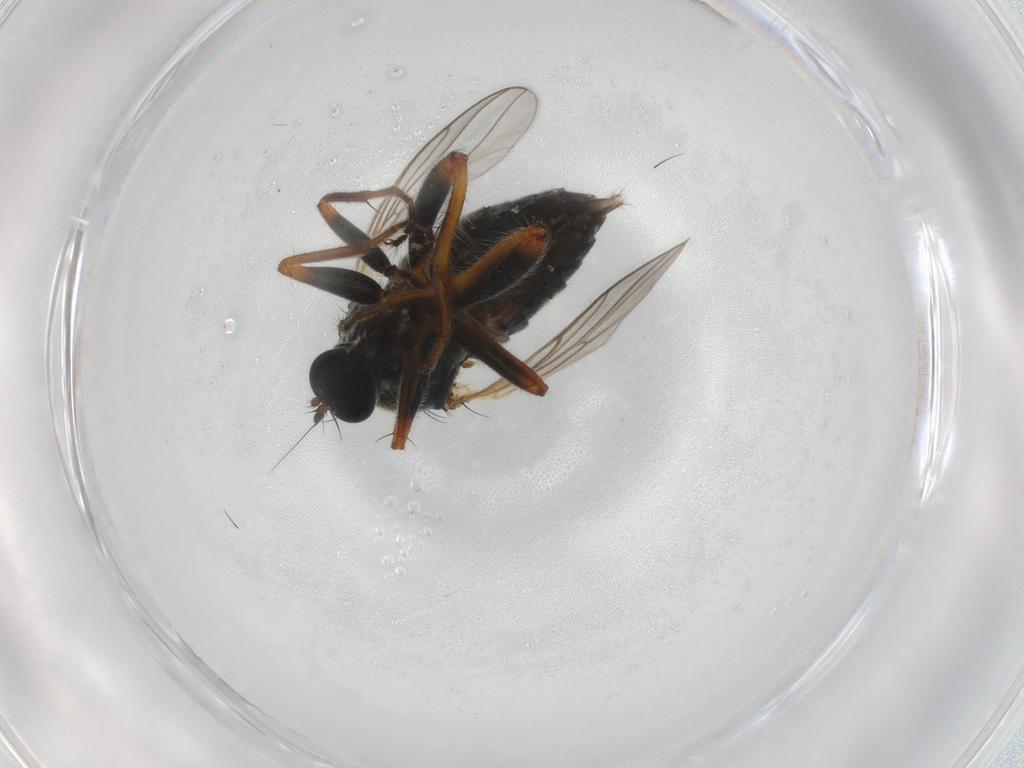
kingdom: Animalia
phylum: Arthropoda
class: Insecta
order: Diptera
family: Hybotidae
